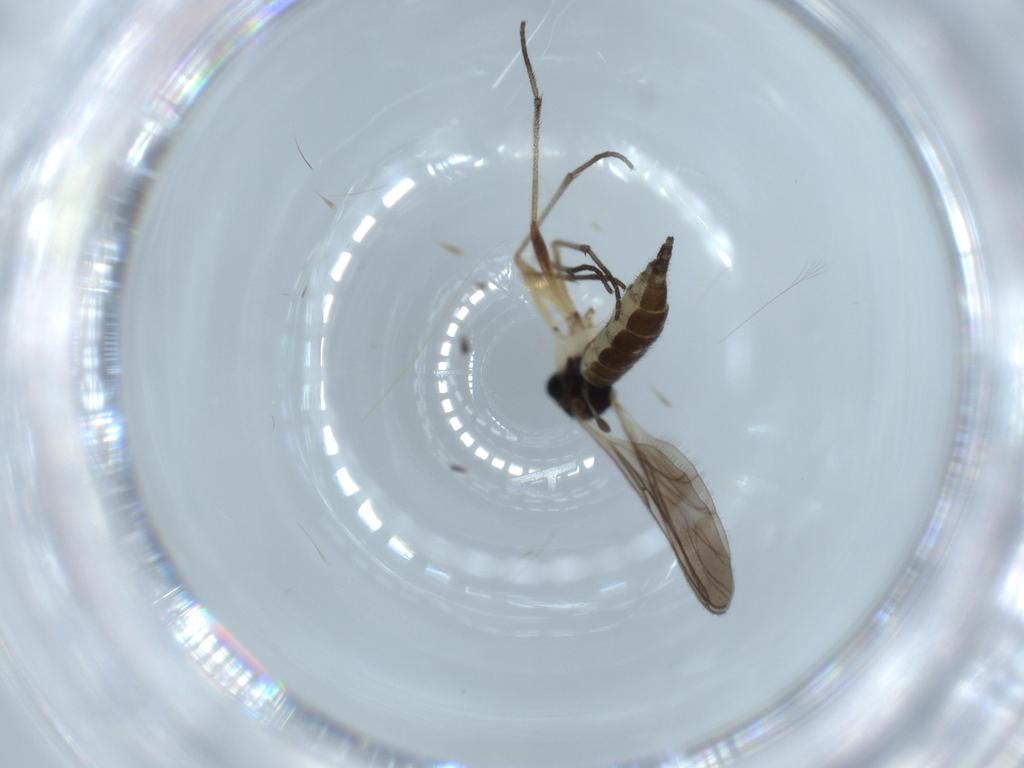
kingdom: Animalia
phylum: Arthropoda
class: Insecta
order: Diptera
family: Sciaridae
